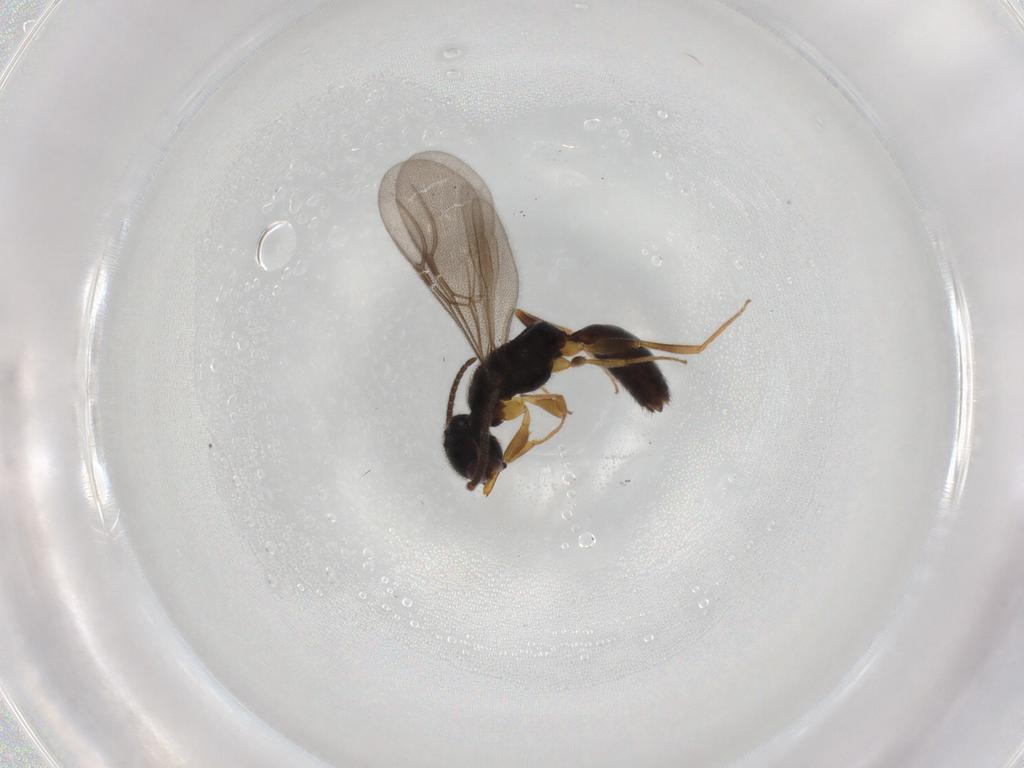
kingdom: Animalia
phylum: Arthropoda
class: Insecta
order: Hymenoptera
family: Bethylidae
